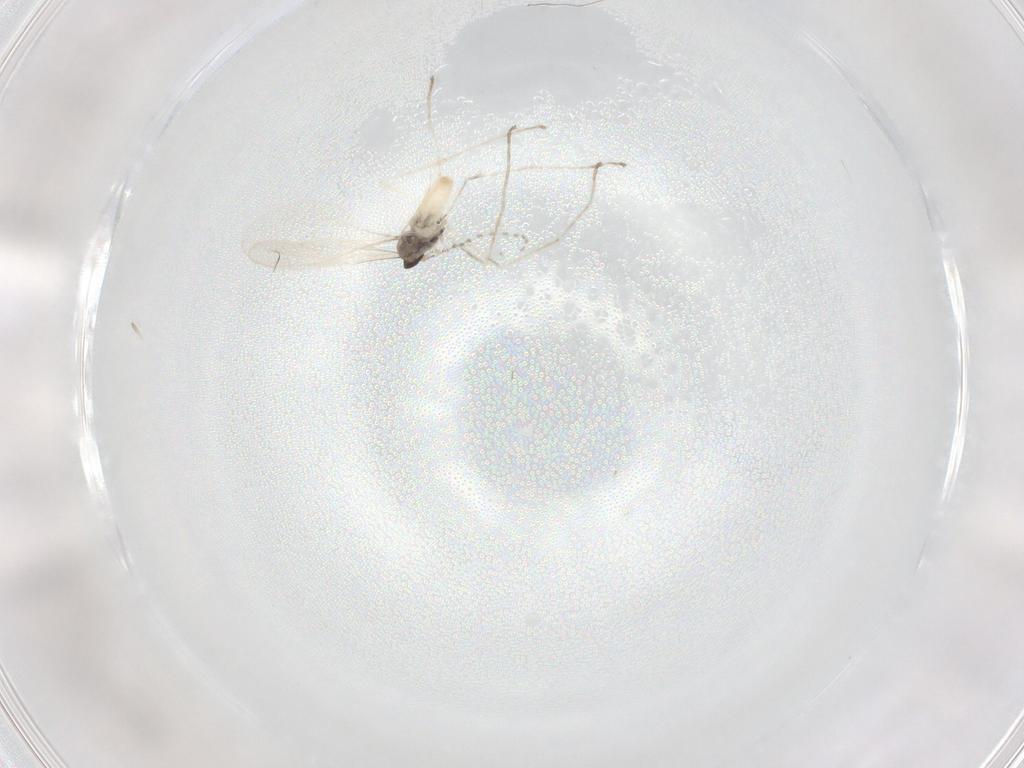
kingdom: Animalia
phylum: Arthropoda
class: Insecta
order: Diptera
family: Cecidomyiidae
